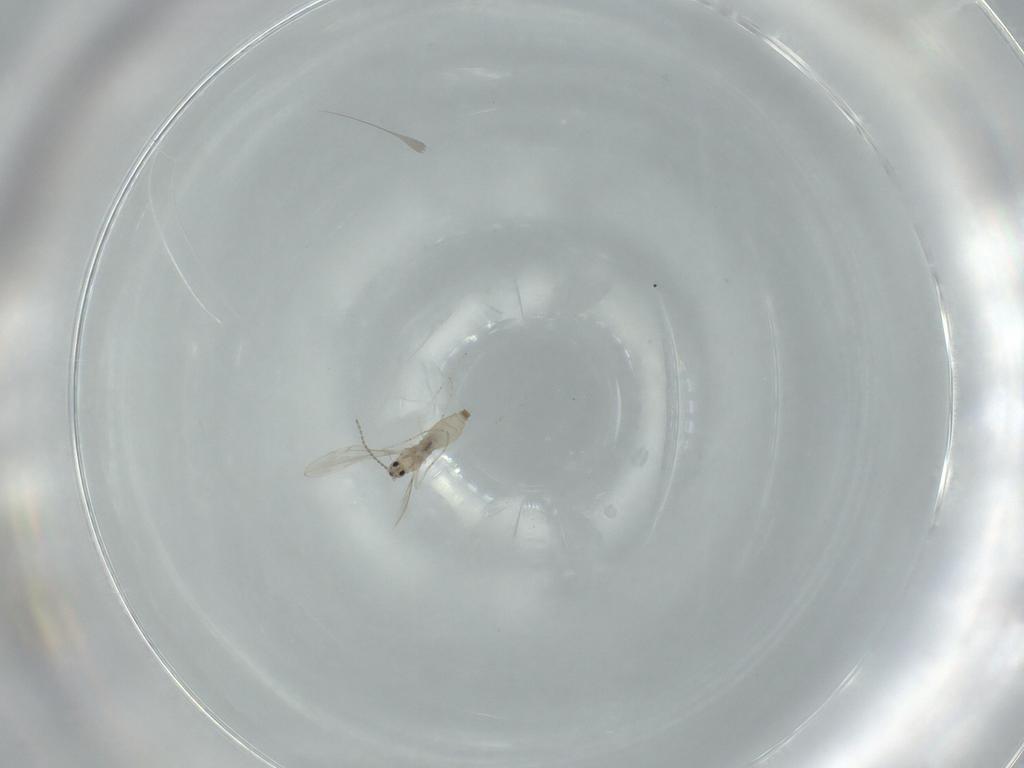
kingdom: Animalia
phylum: Arthropoda
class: Insecta
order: Diptera
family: Cecidomyiidae
